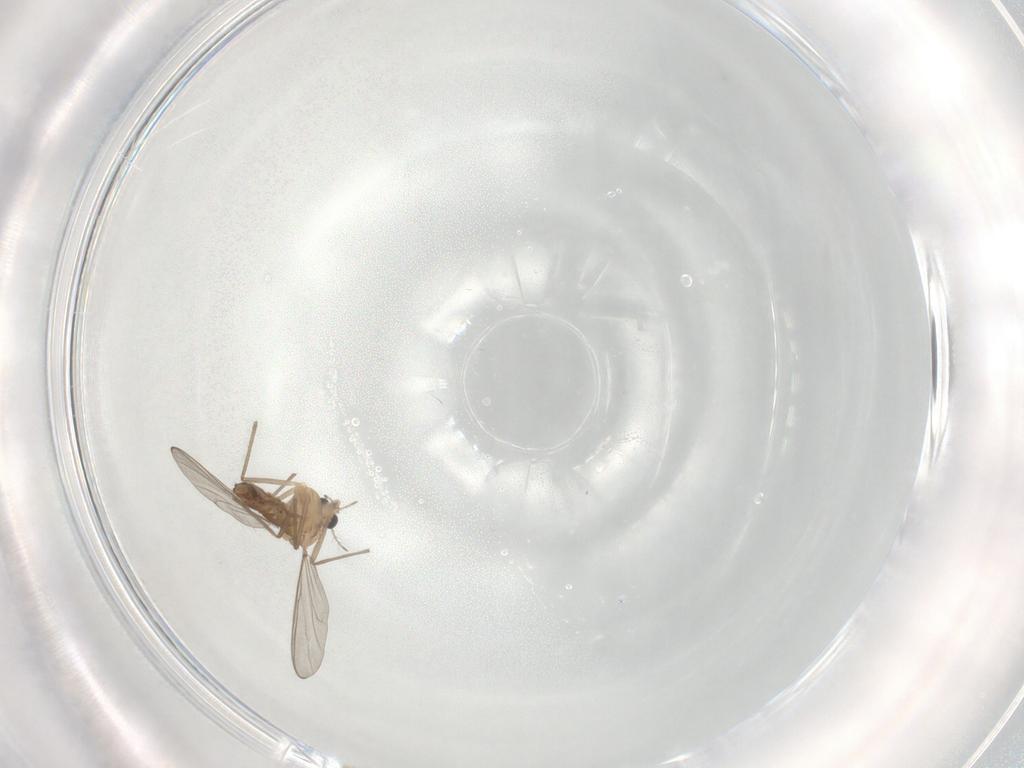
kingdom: Animalia
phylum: Arthropoda
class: Insecta
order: Diptera
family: Chironomidae
